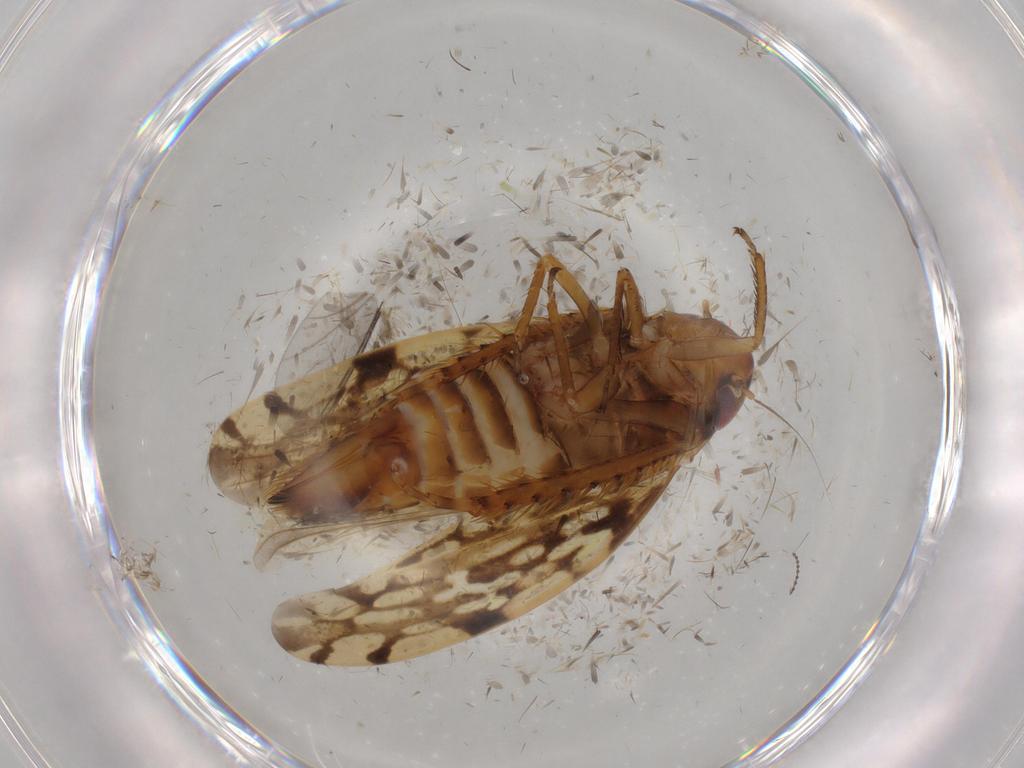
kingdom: Animalia
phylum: Arthropoda
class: Insecta
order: Hemiptera
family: Cicadellidae
